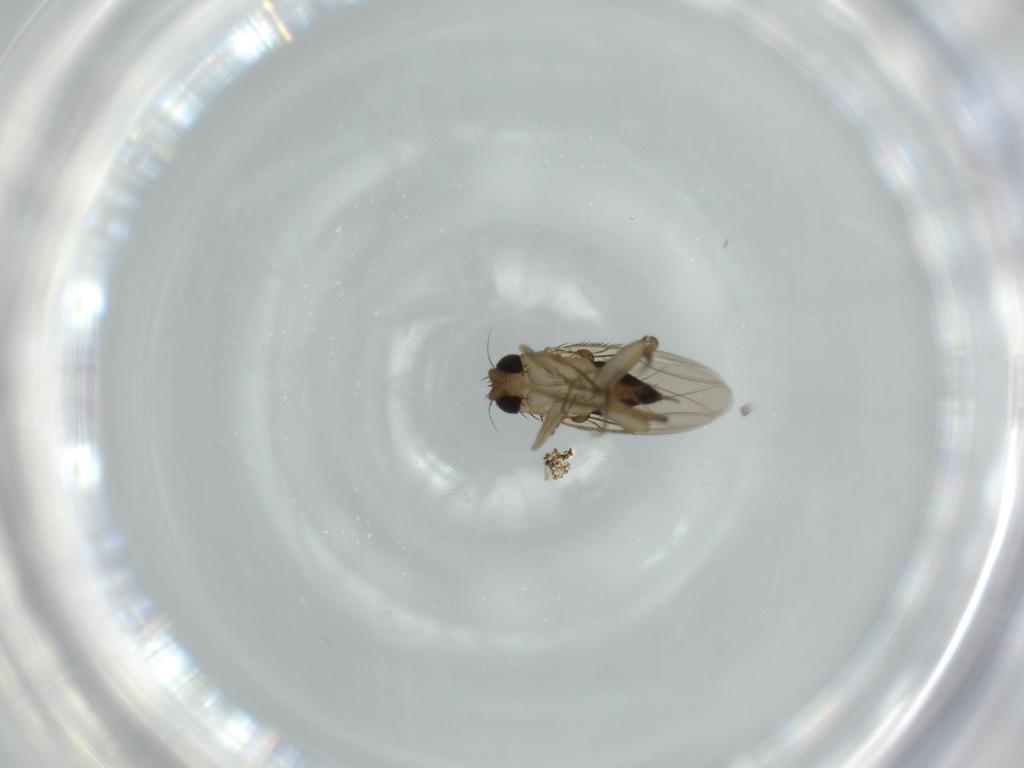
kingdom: Animalia
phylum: Arthropoda
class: Insecta
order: Diptera
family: Phoridae
